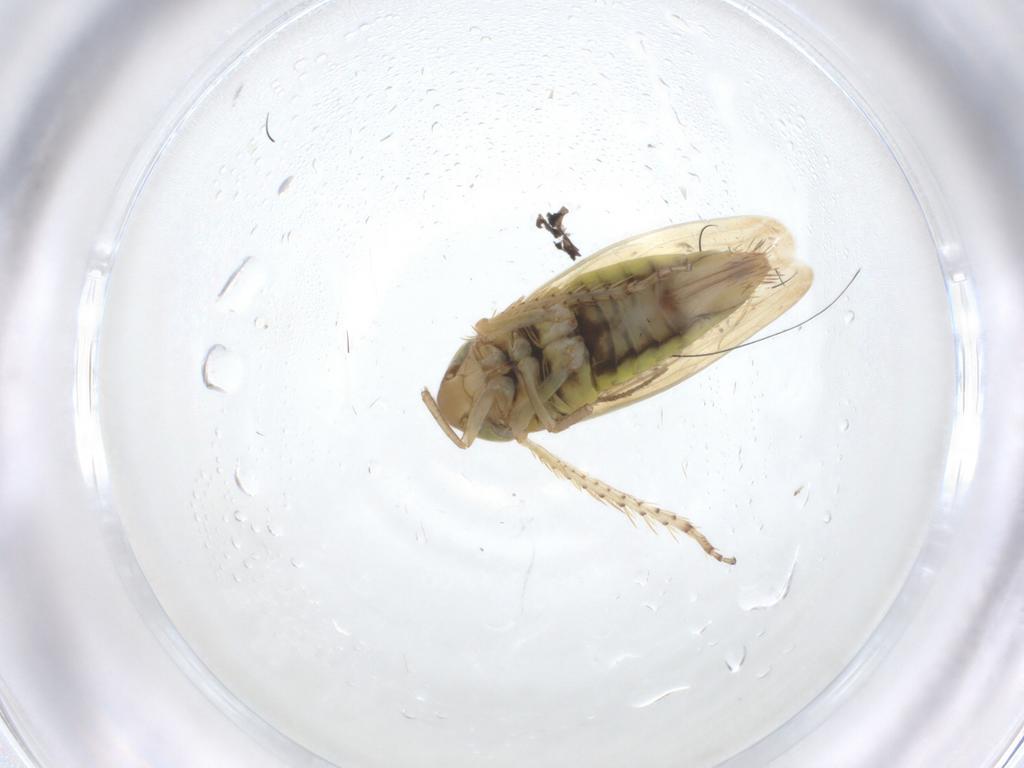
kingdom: Animalia
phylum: Arthropoda
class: Insecta
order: Hemiptera
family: Cicadellidae
